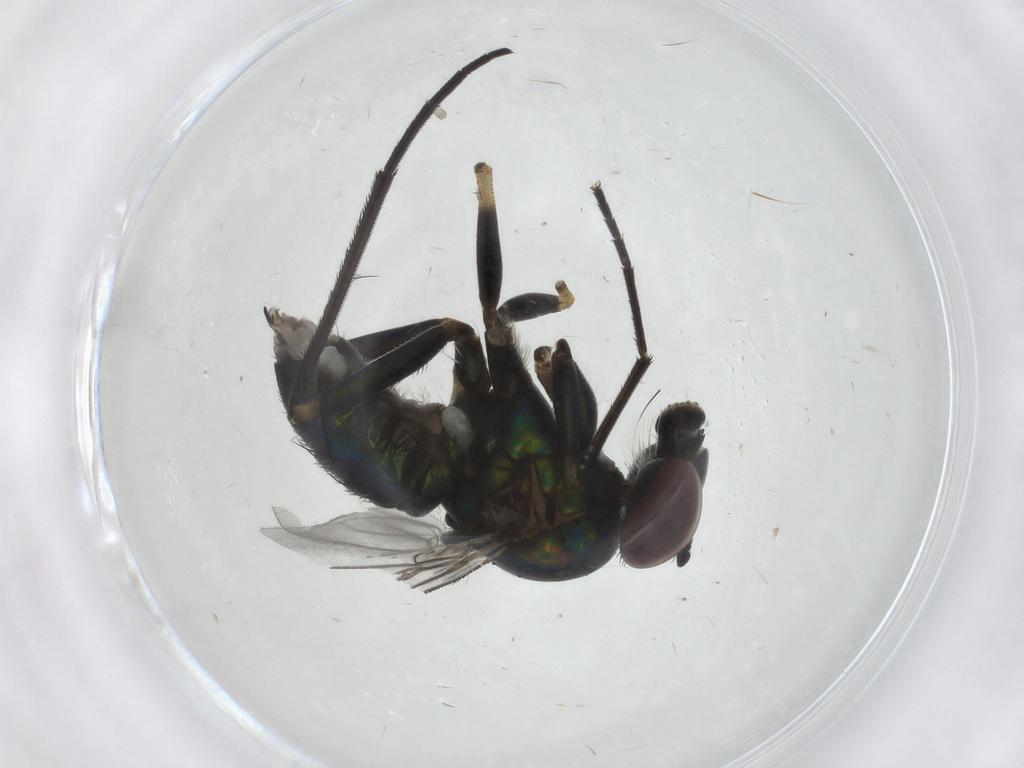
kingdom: Animalia
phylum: Arthropoda
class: Insecta
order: Diptera
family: Dolichopodidae
